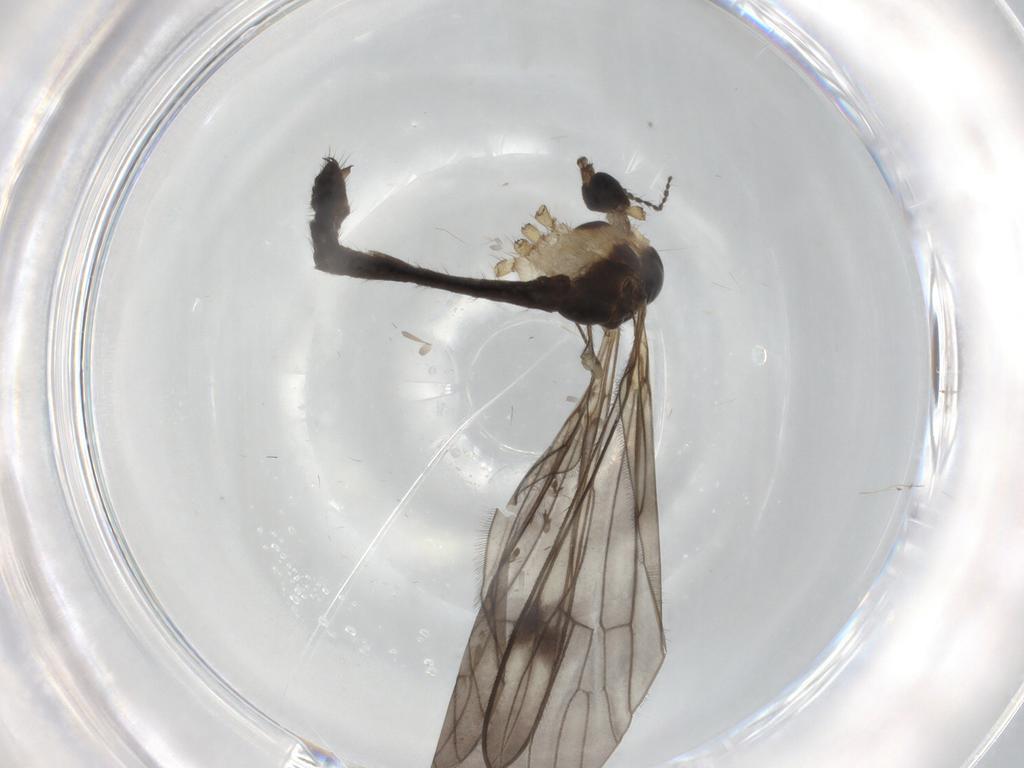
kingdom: Animalia
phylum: Arthropoda
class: Insecta
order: Diptera
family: Limoniidae
